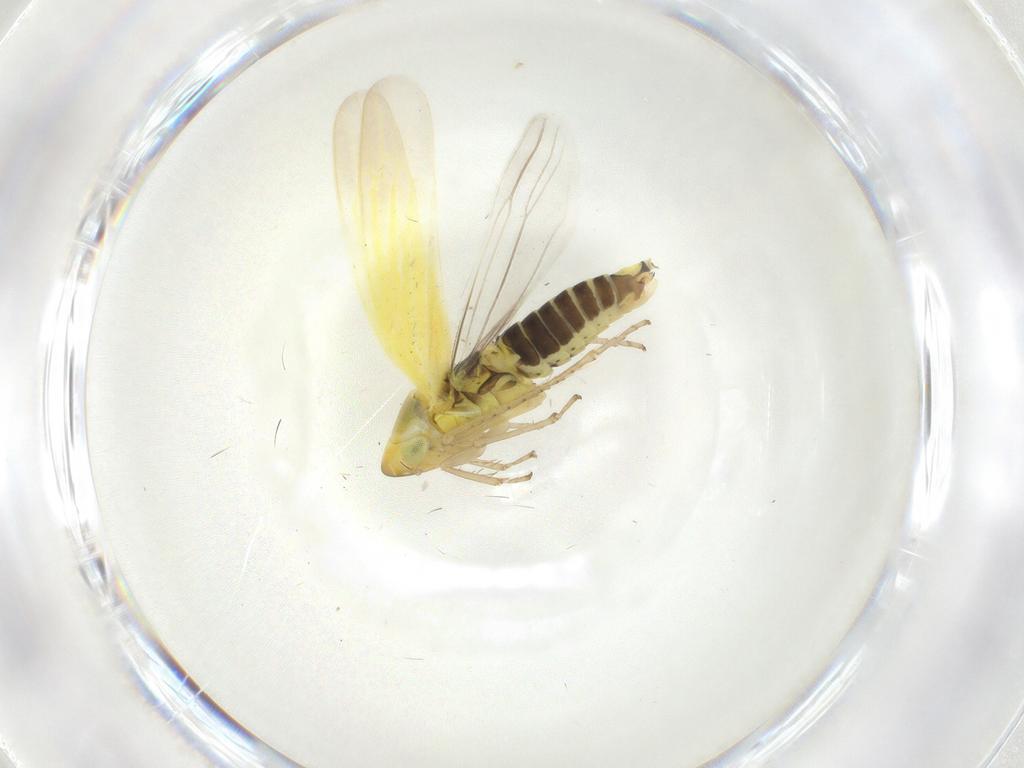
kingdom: Animalia
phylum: Arthropoda
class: Insecta
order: Hemiptera
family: Cicadellidae
